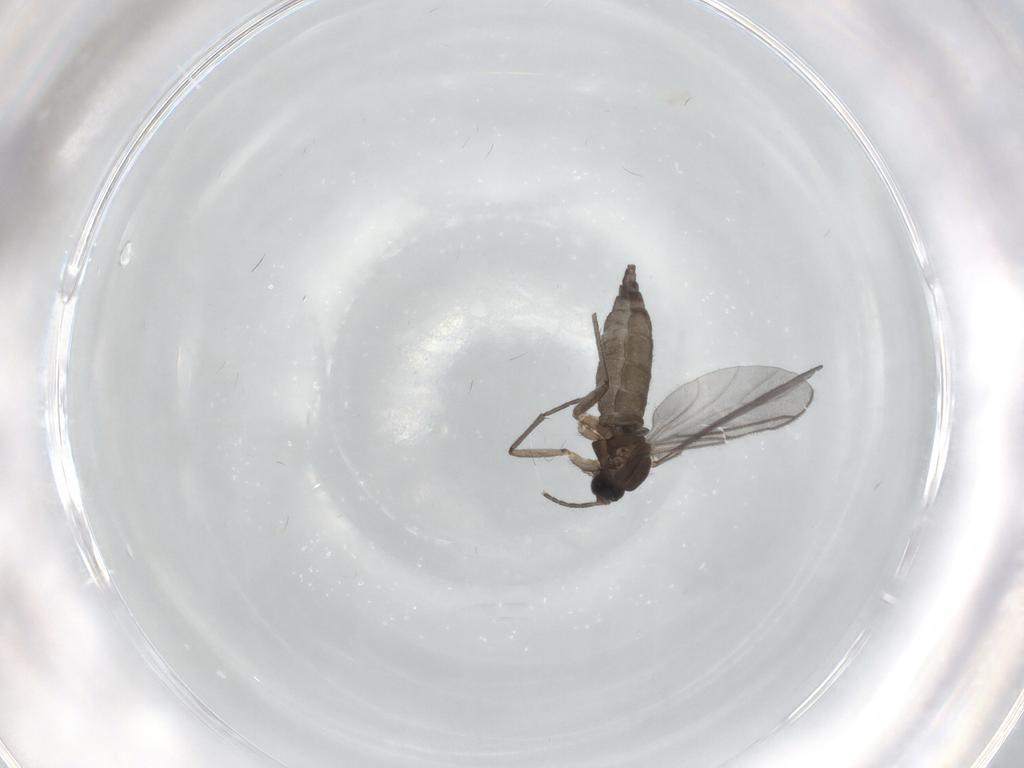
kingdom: Animalia
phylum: Arthropoda
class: Insecta
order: Diptera
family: Sciaridae
